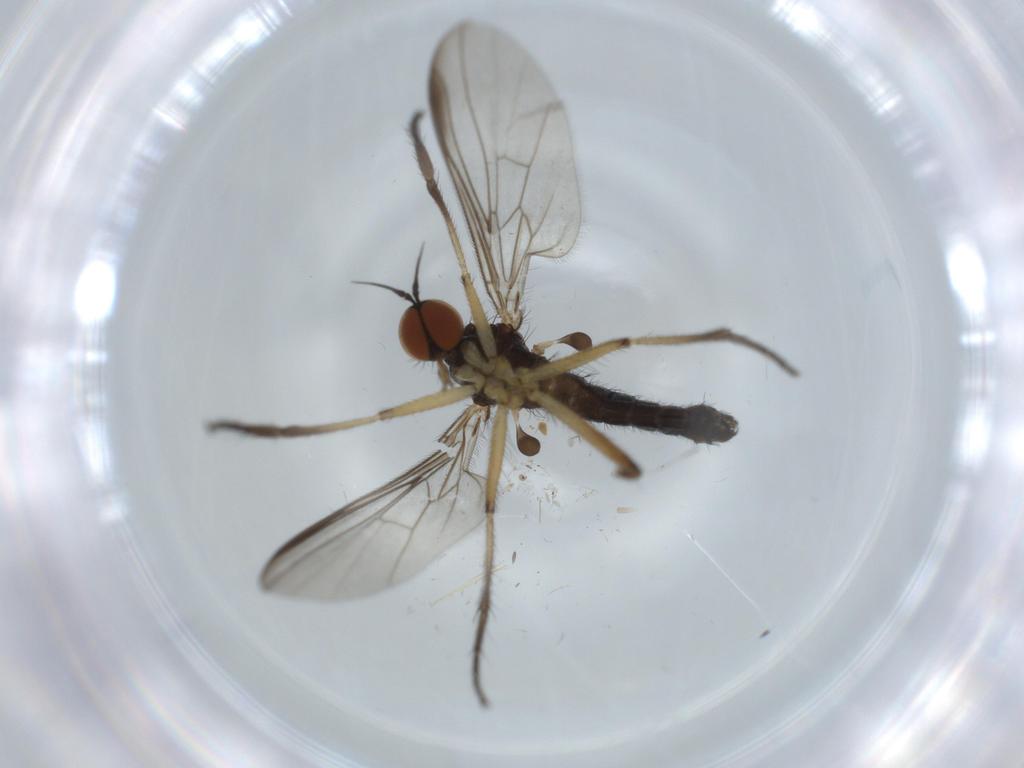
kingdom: Animalia
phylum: Arthropoda
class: Insecta
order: Diptera
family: Empididae
